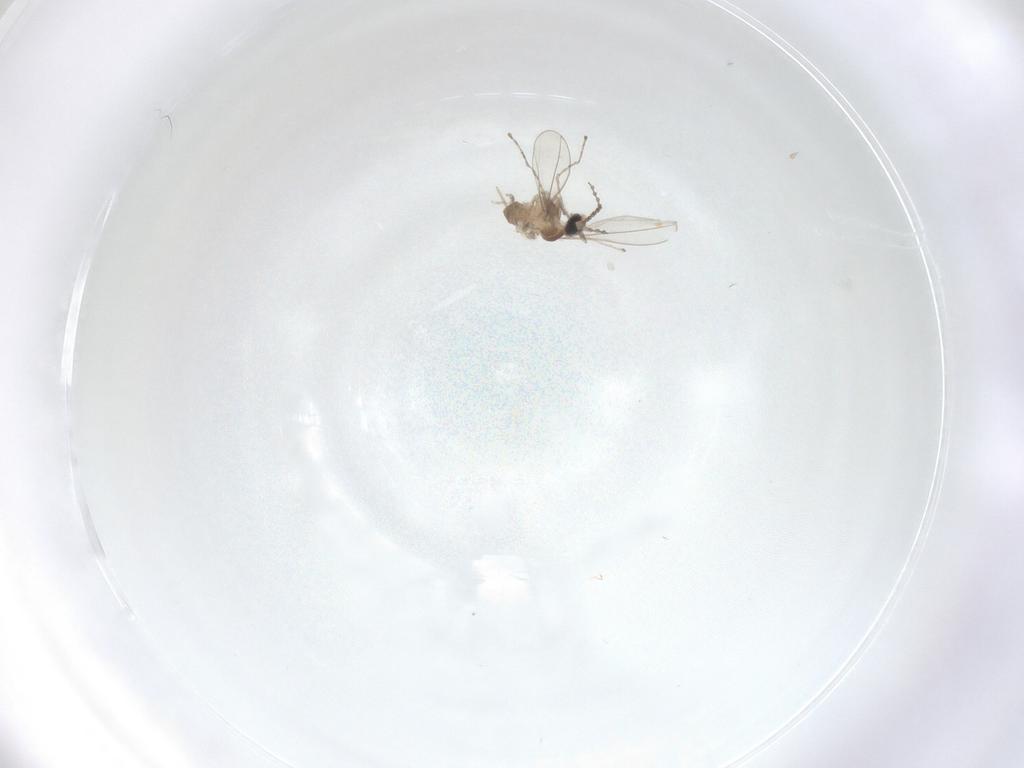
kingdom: Animalia
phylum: Arthropoda
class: Insecta
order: Diptera
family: Cecidomyiidae
